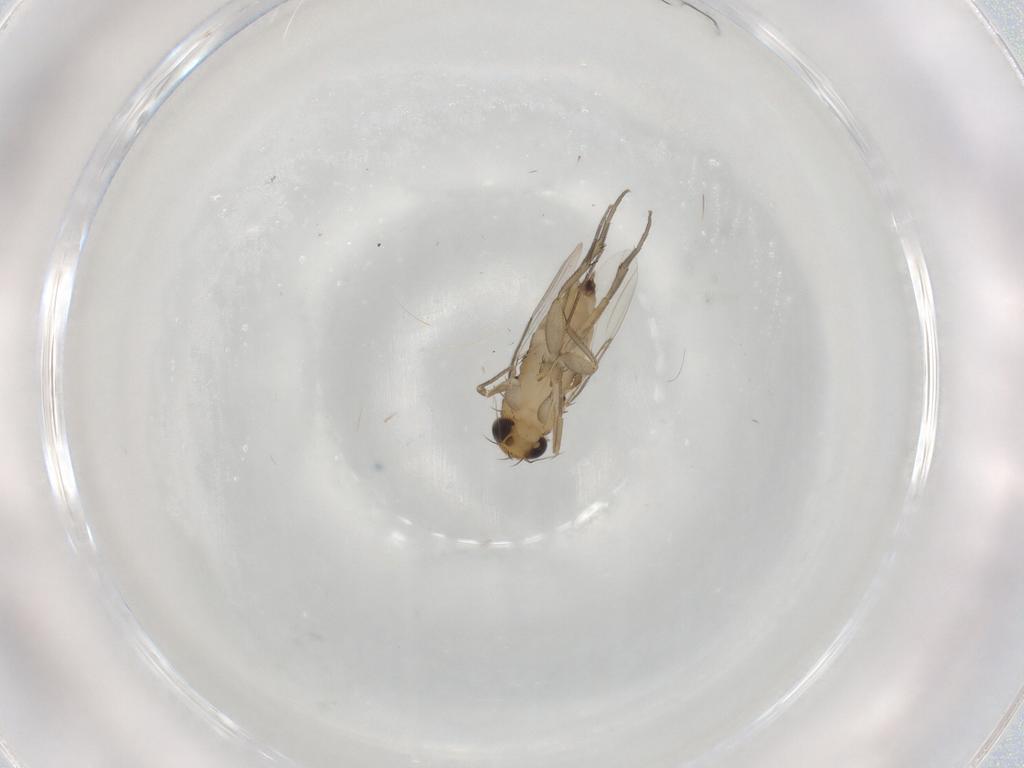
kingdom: Animalia
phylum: Arthropoda
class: Insecta
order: Diptera
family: Phoridae
